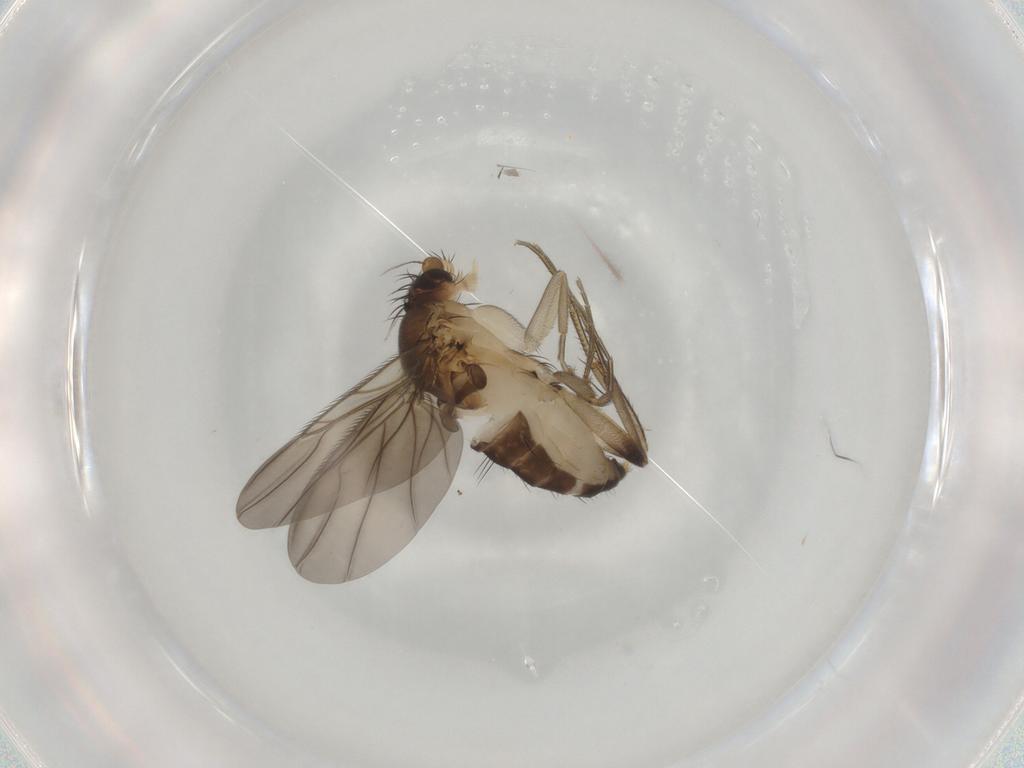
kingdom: Animalia
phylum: Arthropoda
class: Insecta
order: Diptera
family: Phoridae
